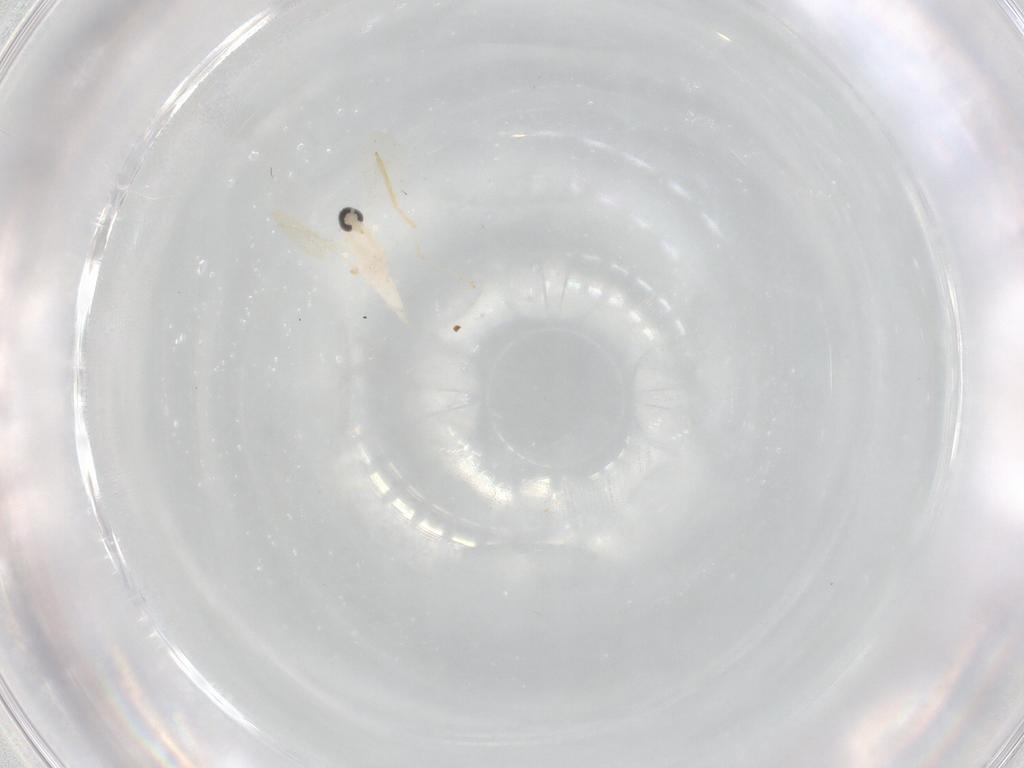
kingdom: Animalia
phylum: Arthropoda
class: Insecta
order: Diptera
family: Cecidomyiidae
